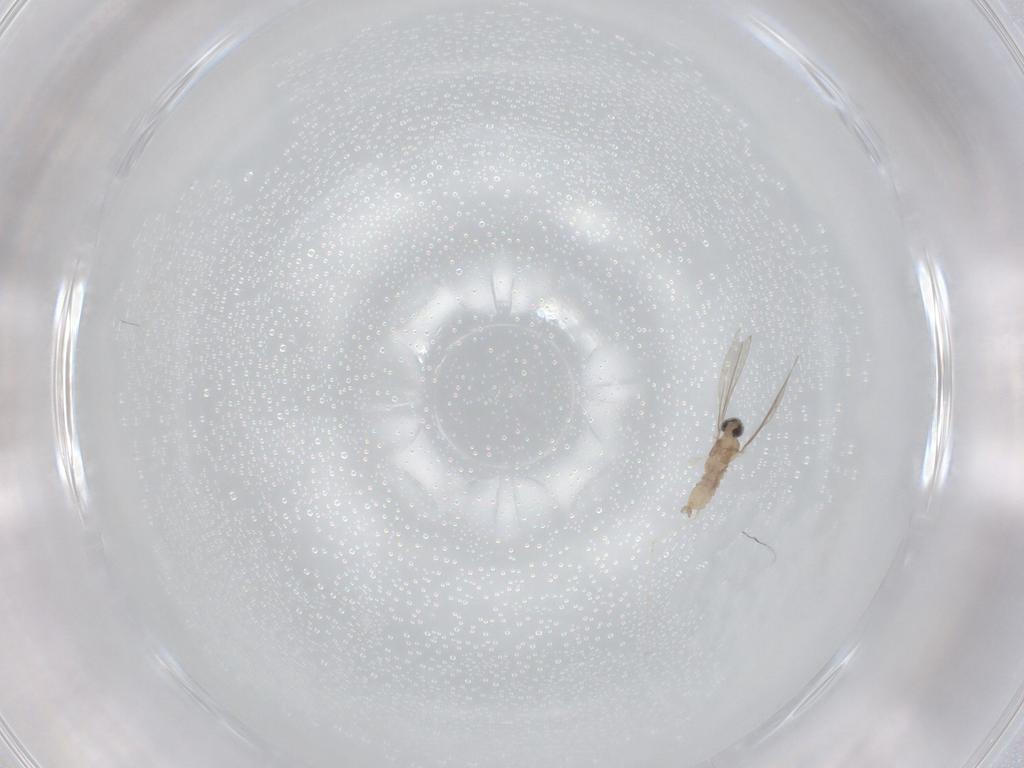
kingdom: Animalia
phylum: Arthropoda
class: Insecta
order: Diptera
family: Cecidomyiidae
